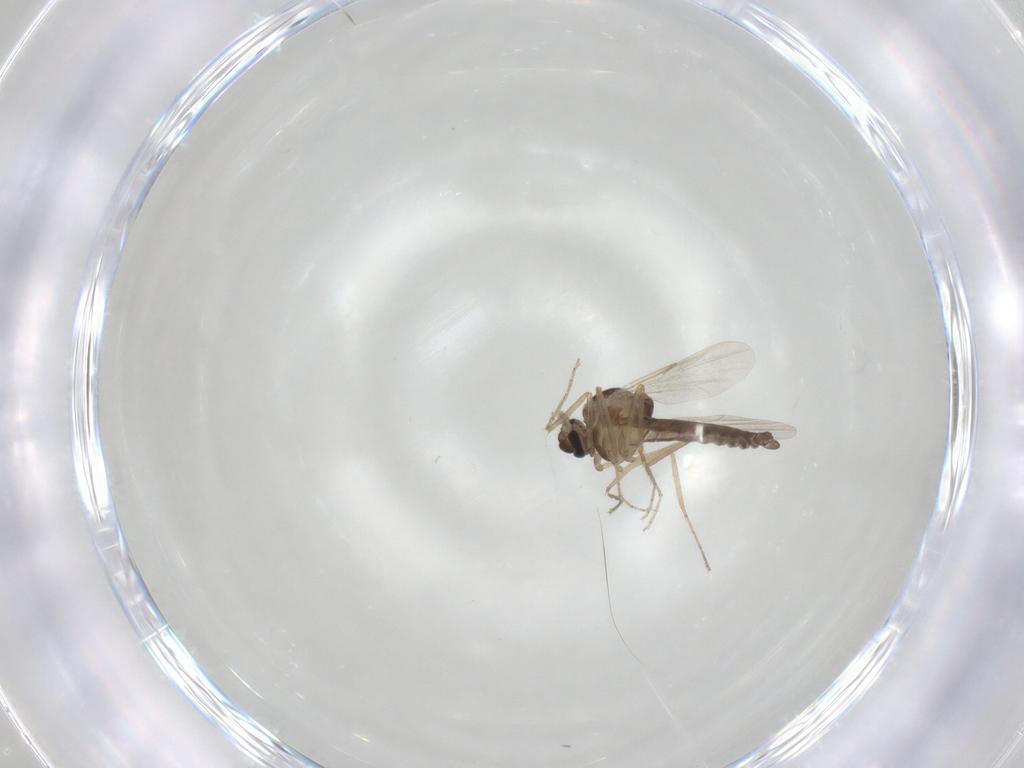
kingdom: Animalia
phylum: Arthropoda
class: Insecta
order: Diptera
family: Ceratopogonidae
